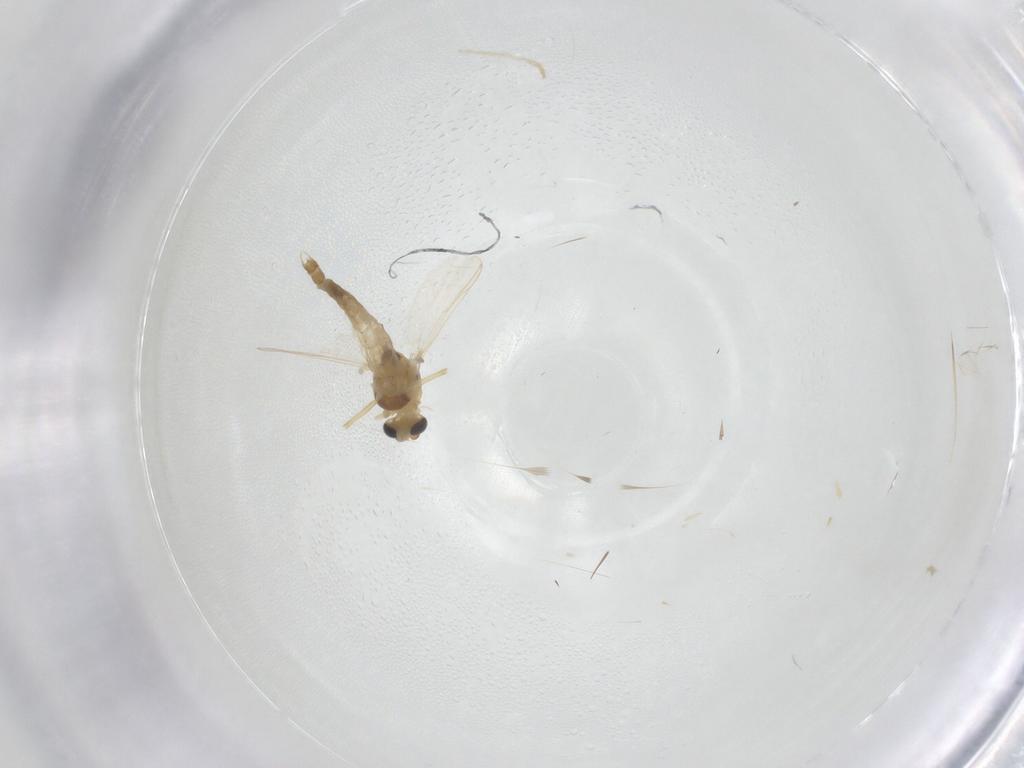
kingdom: Animalia
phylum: Arthropoda
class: Insecta
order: Diptera
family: Chironomidae
